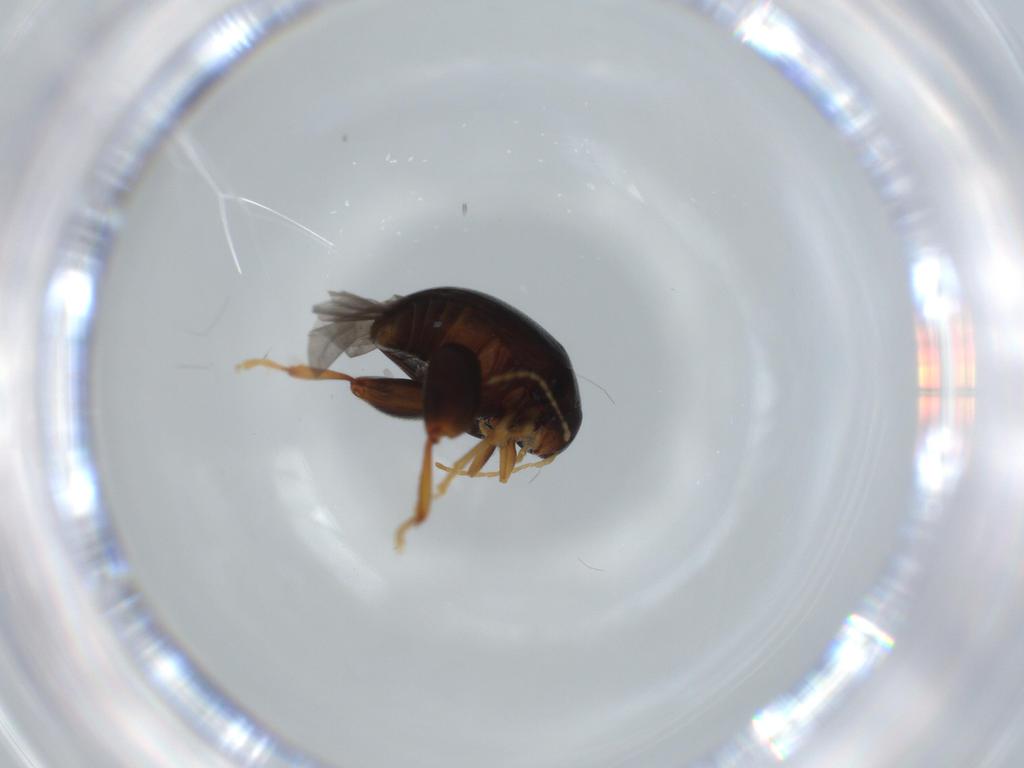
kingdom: Animalia
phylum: Arthropoda
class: Insecta
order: Coleoptera
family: Chrysomelidae
